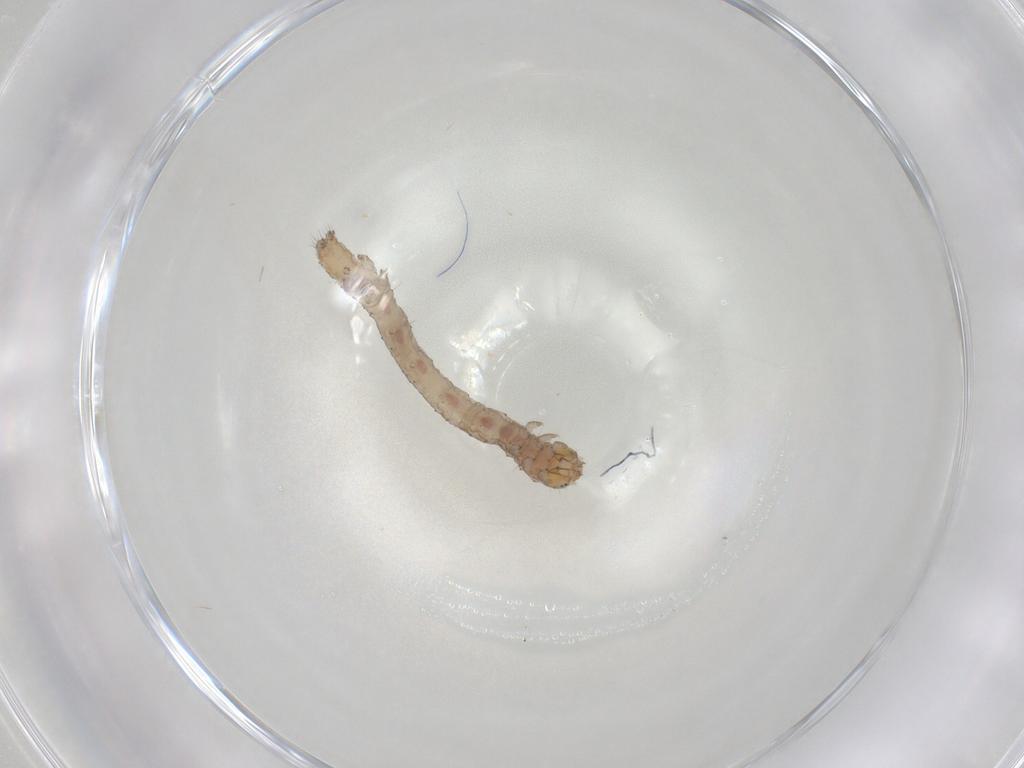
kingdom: Animalia
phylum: Arthropoda
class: Insecta
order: Lepidoptera
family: Erebidae
